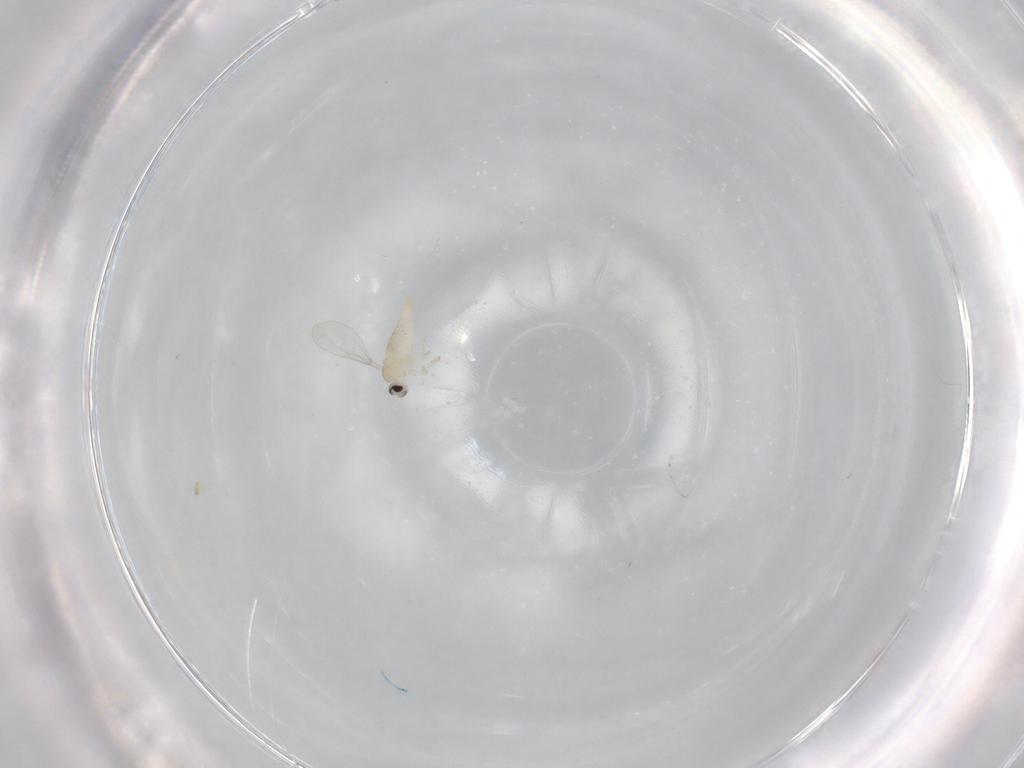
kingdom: Animalia
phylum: Arthropoda
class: Insecta
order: Diptera
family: Cecidomyiidae
